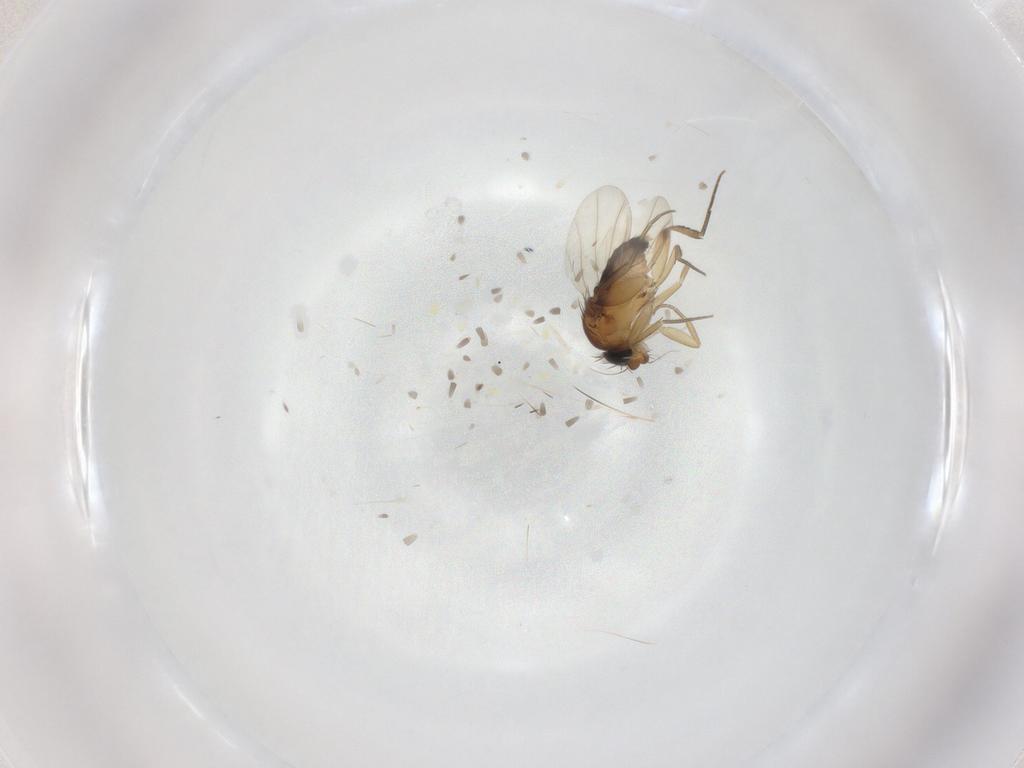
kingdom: Animalia
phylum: Arthropoda
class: Insecta
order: Diptera
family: Phoridae
